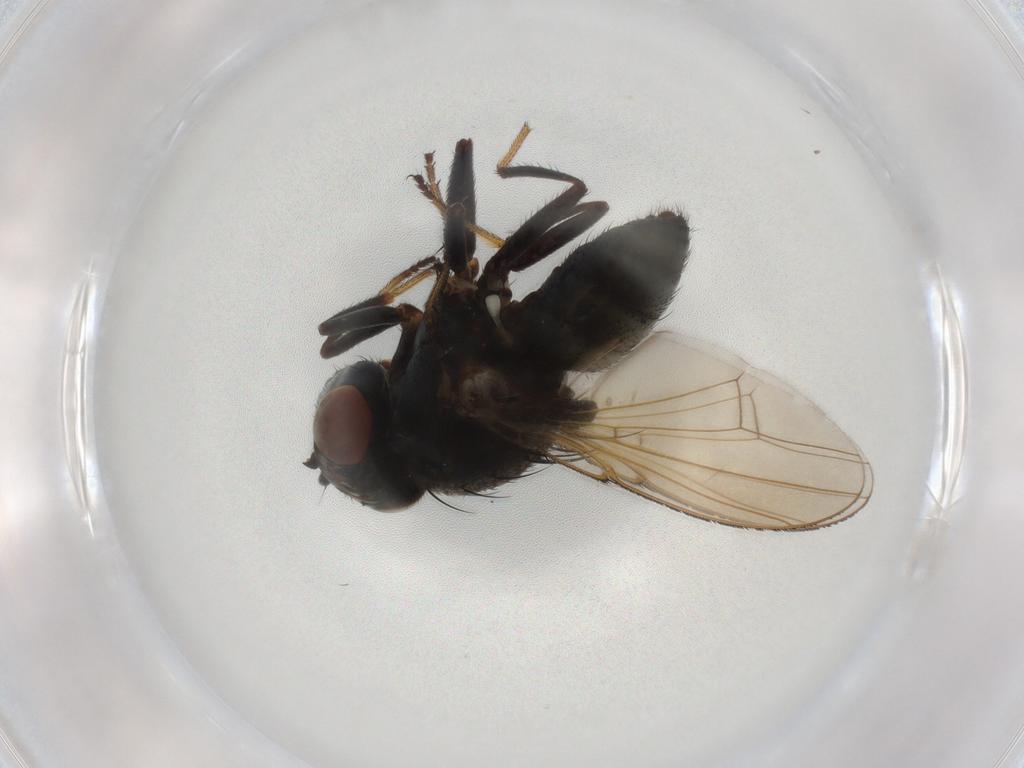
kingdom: Animalia
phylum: Arthropoda
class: Insecta
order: Diptera
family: Ephydridae
